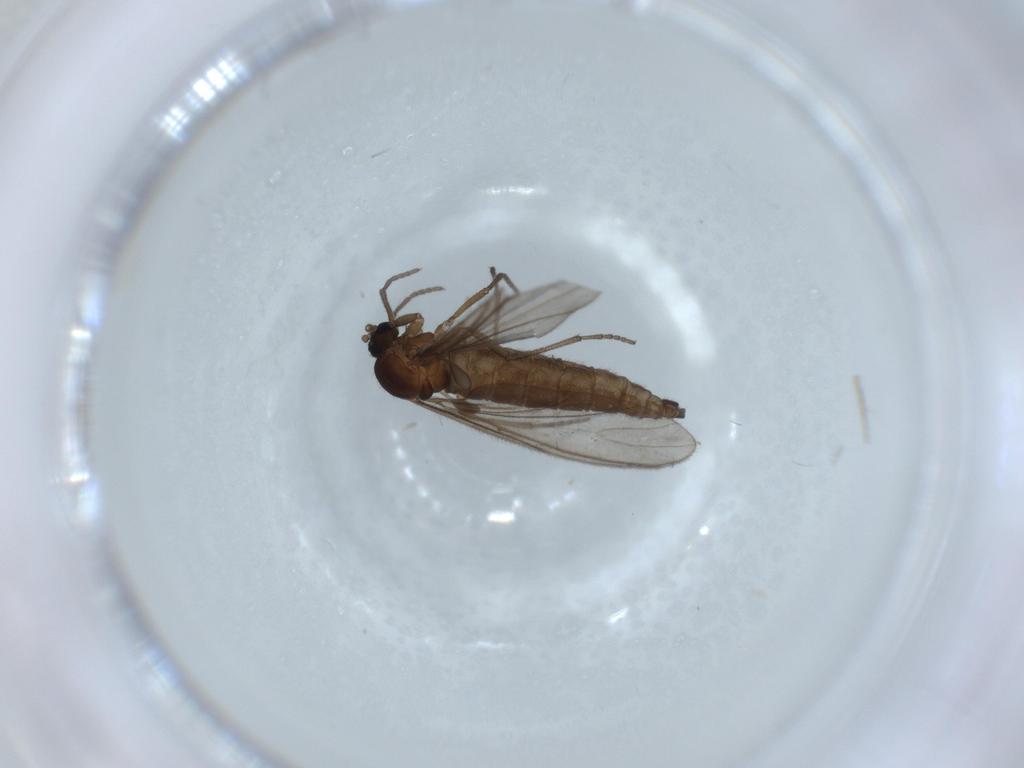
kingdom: Animalia
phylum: Arthropoda
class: Insecta
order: Diptera
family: Sciaridae
